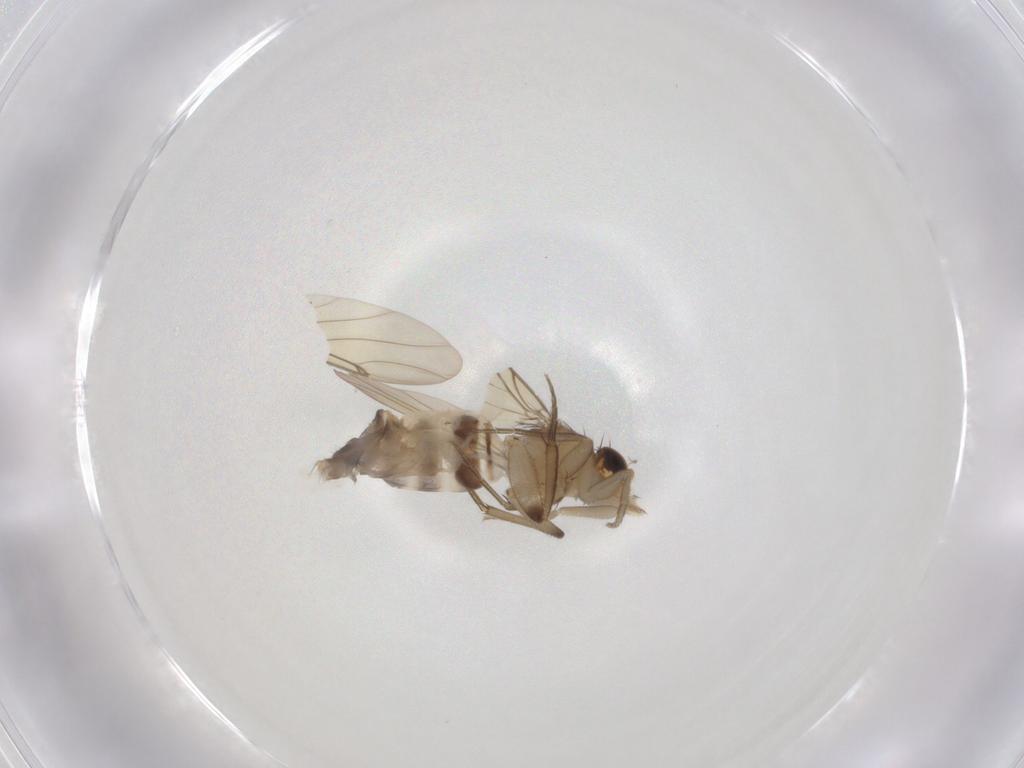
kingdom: Animalia
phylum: Arthropoda
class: Insecta
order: Diptera
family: Phoridae
